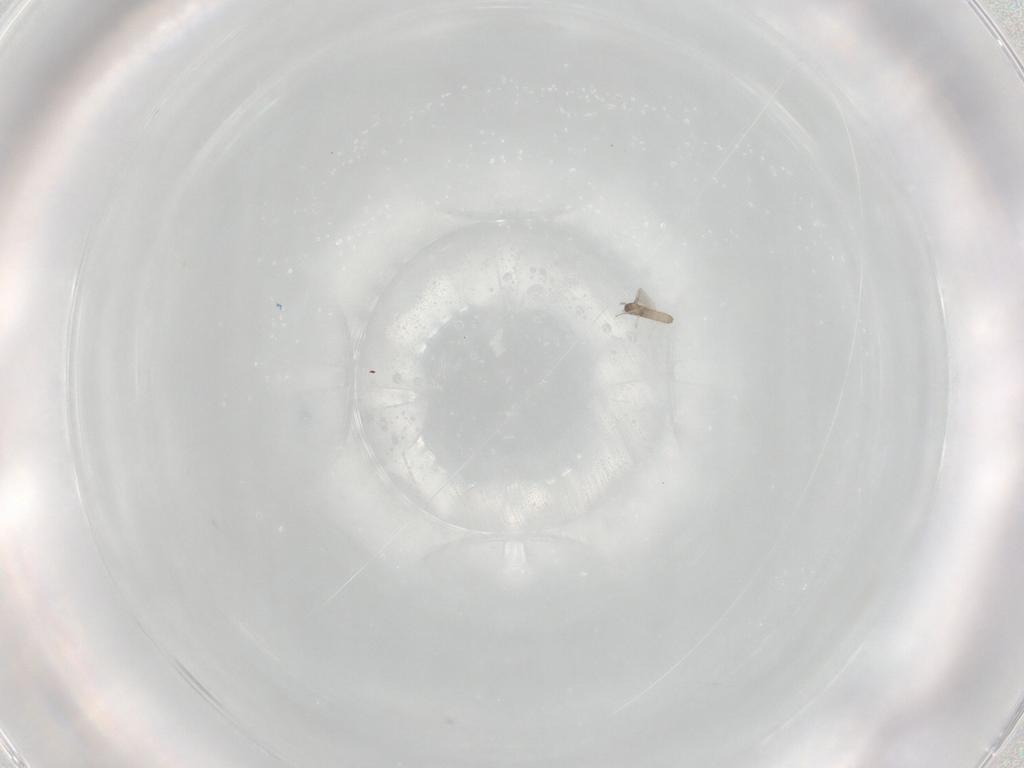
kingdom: Animalia
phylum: Arthropoda
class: Insecta
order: Diptera
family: Cecidomyiidae
